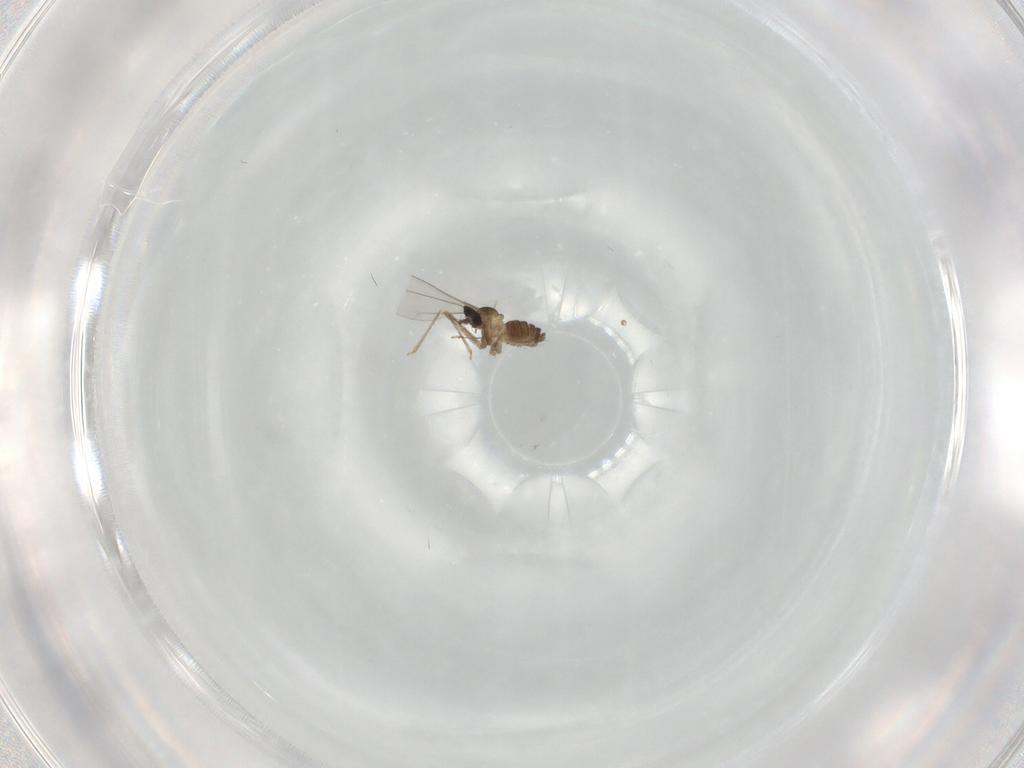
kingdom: Animalia
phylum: Arthropoda
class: Insecta
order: Diptera
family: Cecidomyiidae
